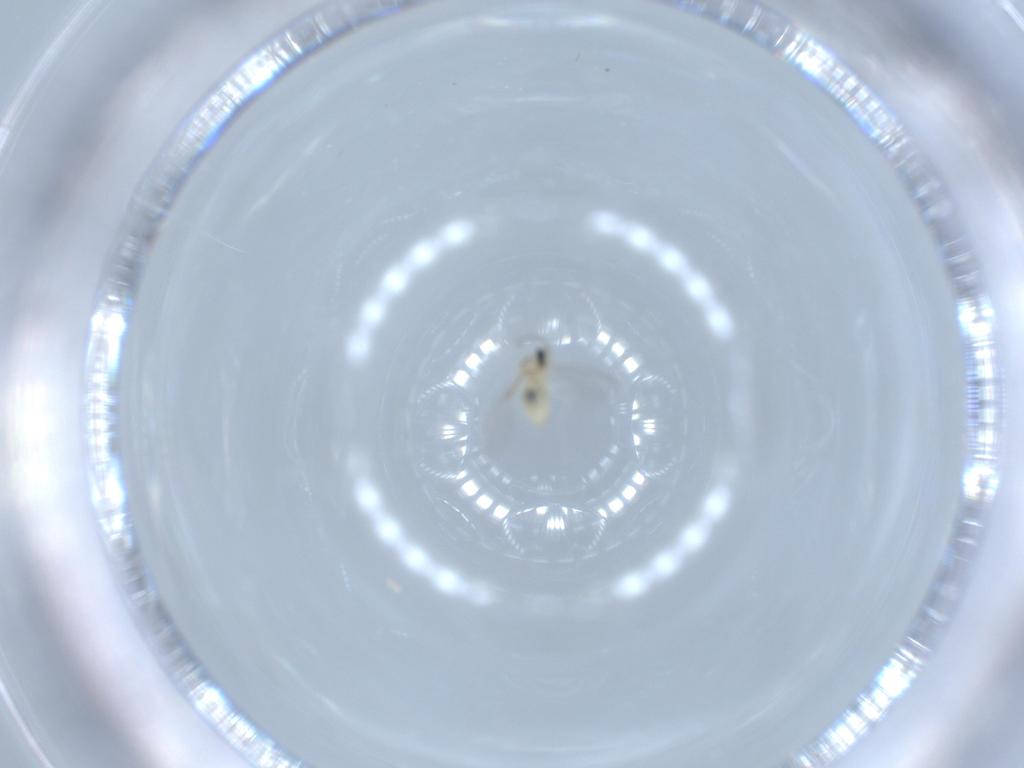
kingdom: Animalia
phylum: Arthropoda
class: Insecta
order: Diptera
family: Cecidomyiidae
